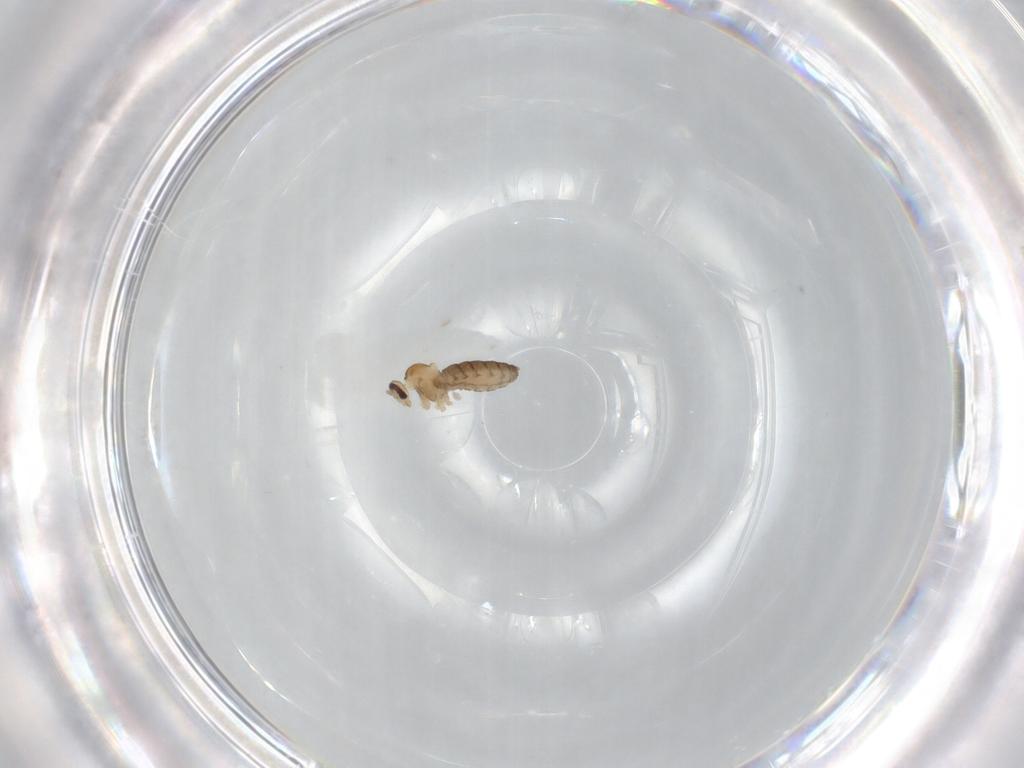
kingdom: Animalia
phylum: Arthropoda
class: Insecta
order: Diptera
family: Cecidomyiidae
